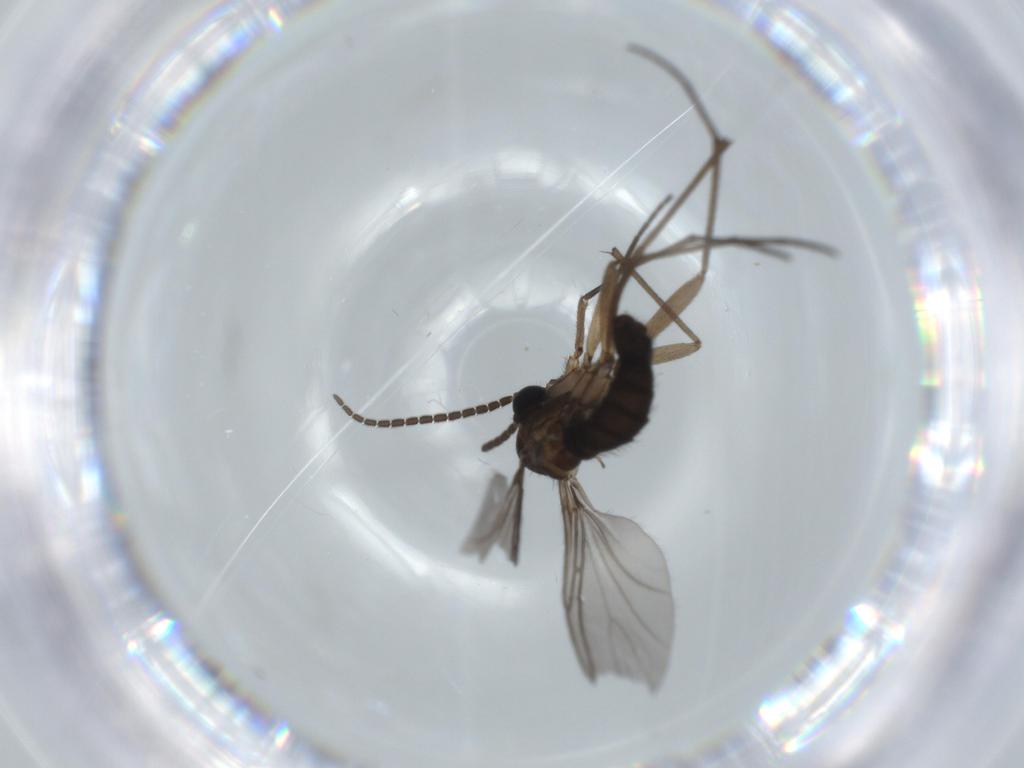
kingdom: Animalia
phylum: Arthropoda
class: Insecta
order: Diptera
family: Sciaridae
